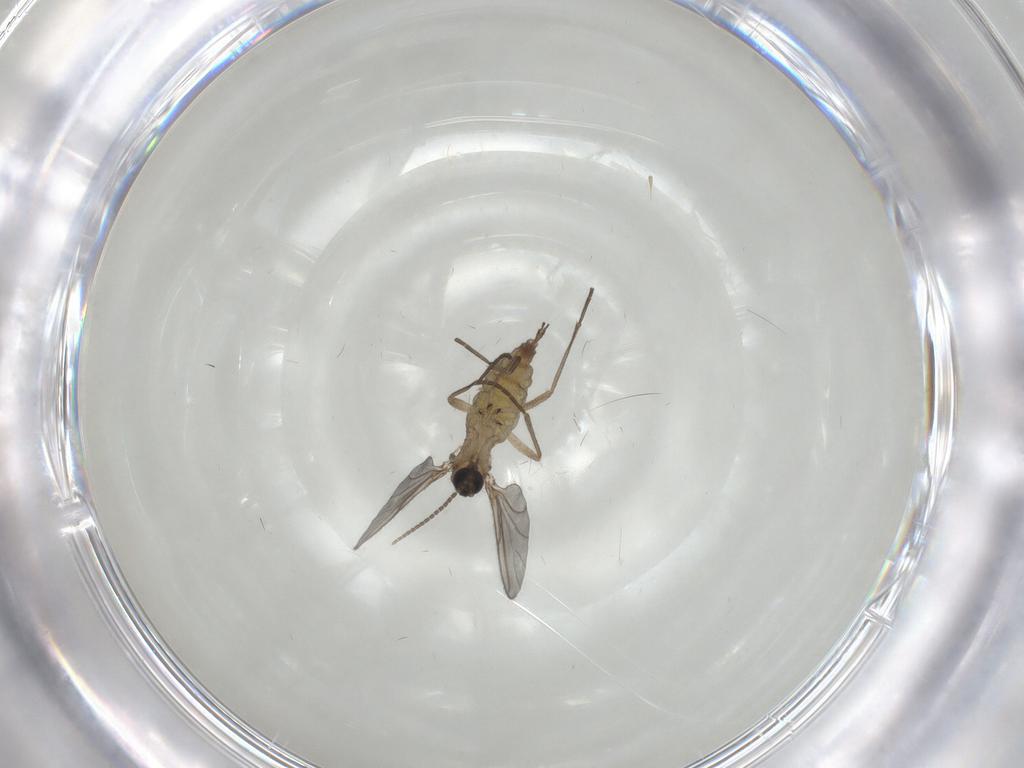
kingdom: Animalia
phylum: Arthropoda
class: Insecta
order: Diptera
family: Sciaridae
